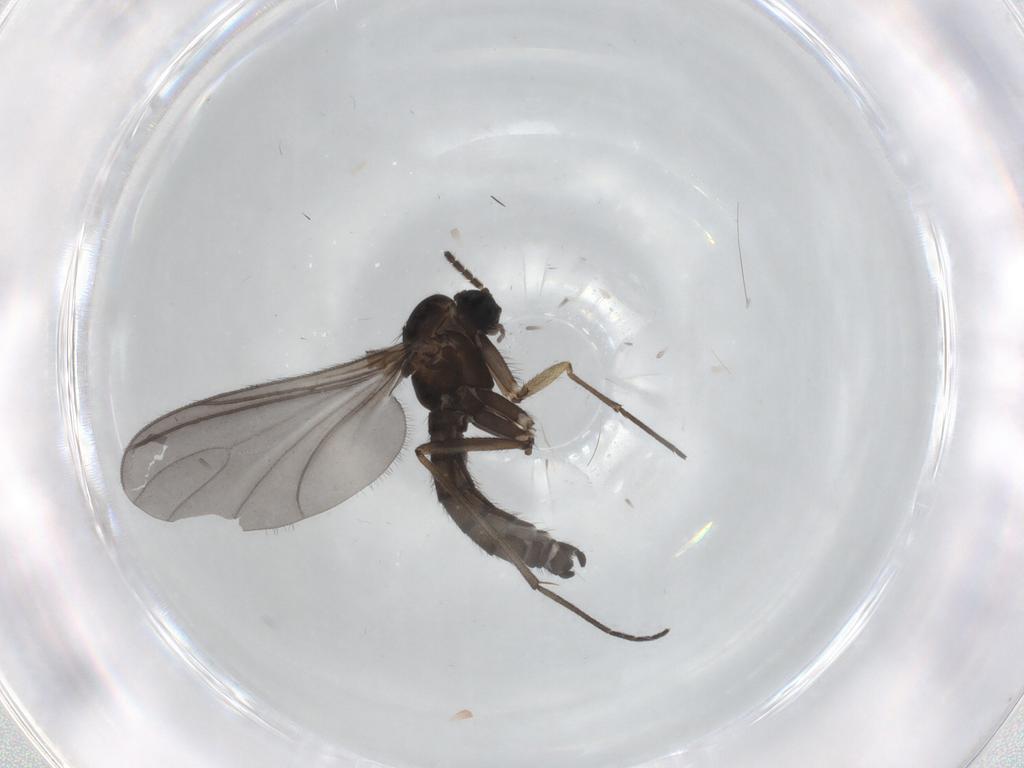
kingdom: Animalia
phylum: Arthropoda
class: Insecta
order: Diptera
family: Sciaridae
